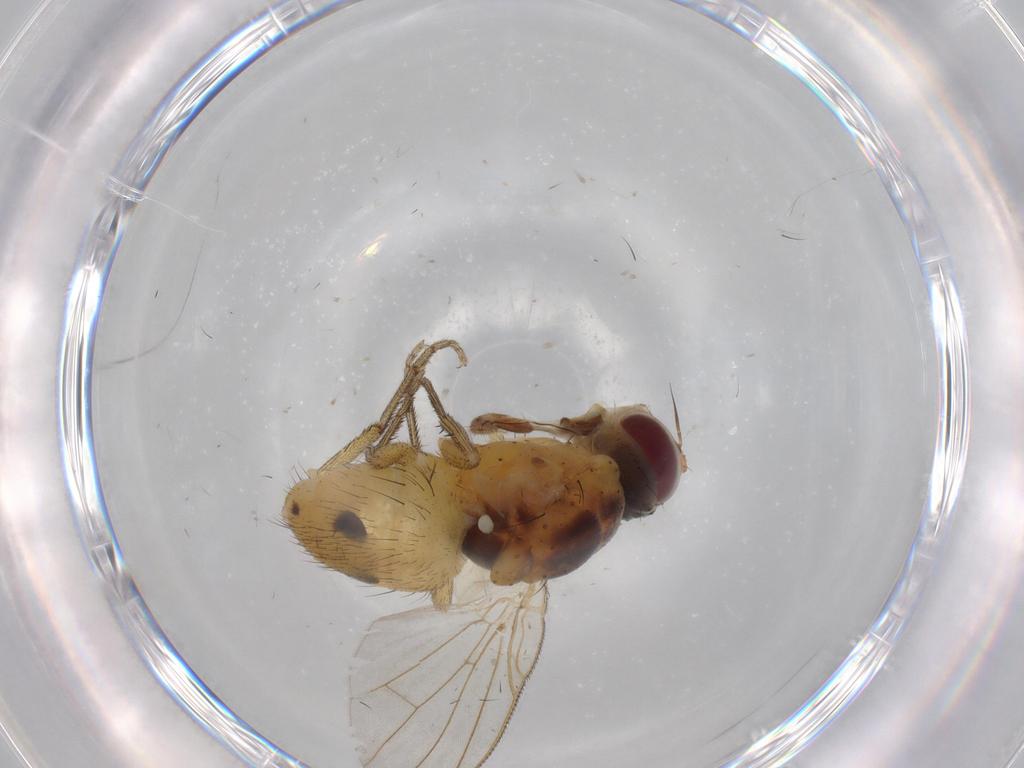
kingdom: Animalia
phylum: Arthropoda
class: Insecta
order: Diptera
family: Muscidae
